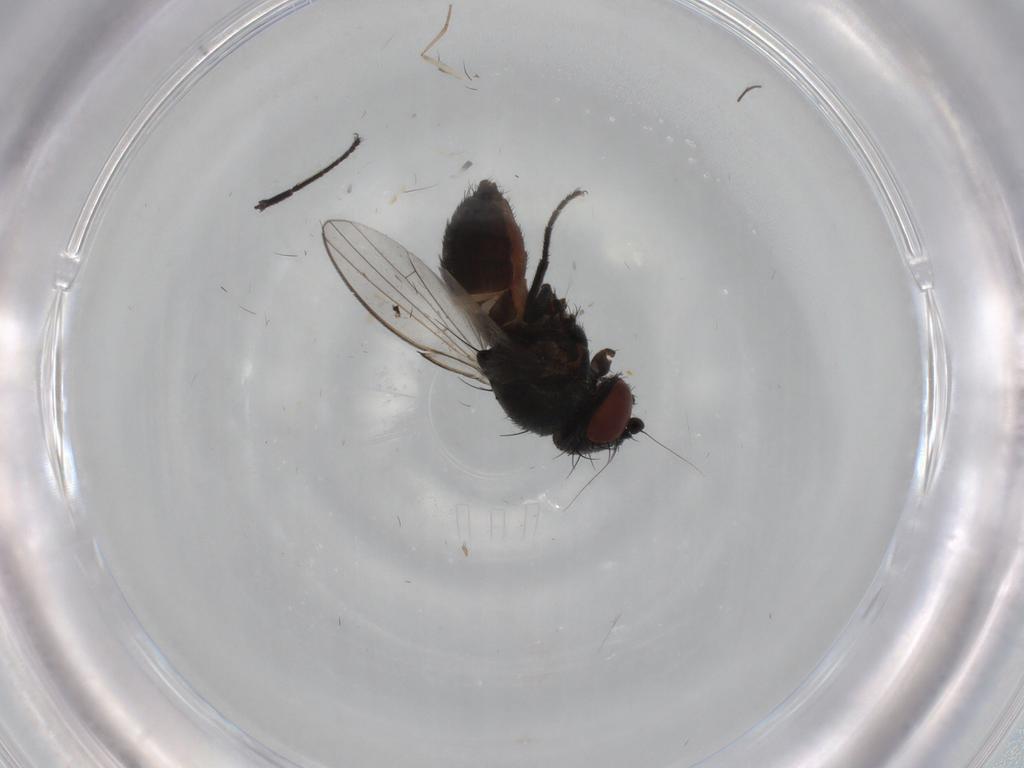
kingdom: Animalia
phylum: Arthropoda
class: Insecta
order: Diptera
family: Milichiidae
